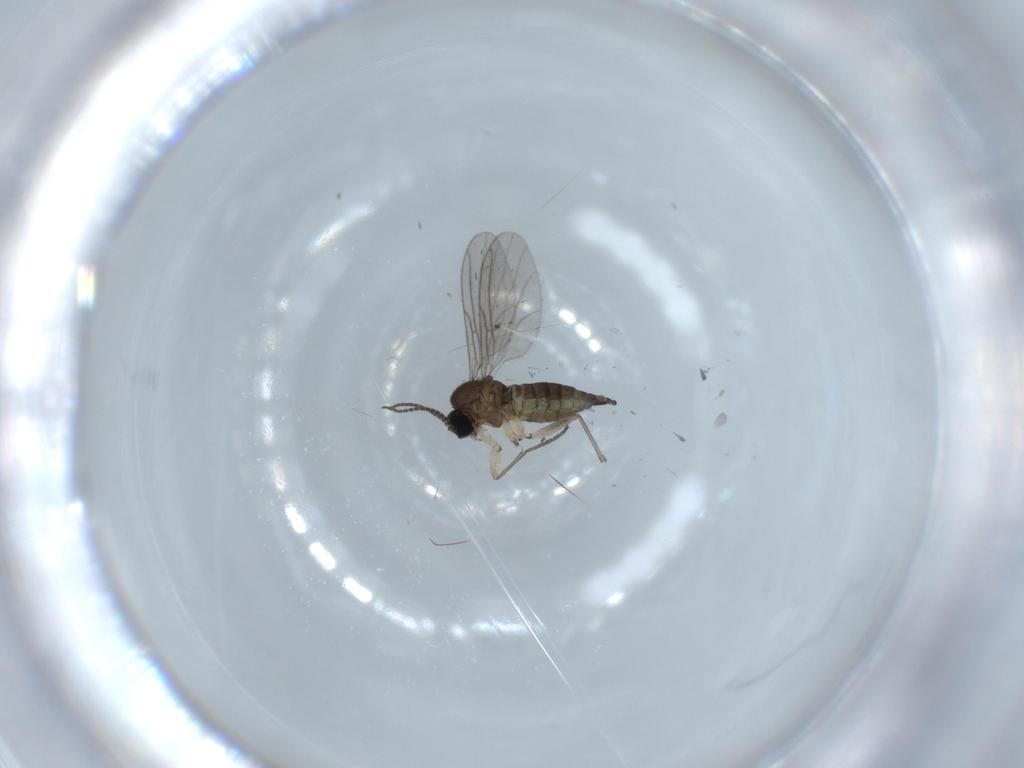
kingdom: Animalia
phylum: Arthropoda
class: Insecta
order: Diptera
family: Sciaridae
